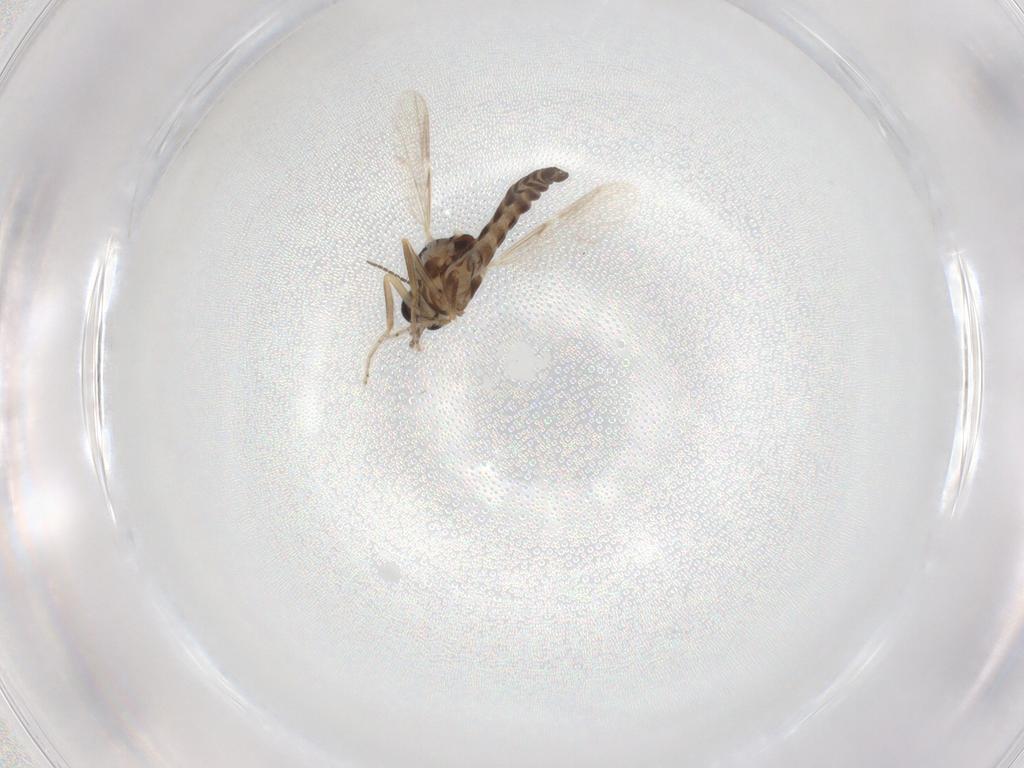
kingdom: Animalia
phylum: Arthropoda
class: Insecta
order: Diptera
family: Ceratopogonidae
